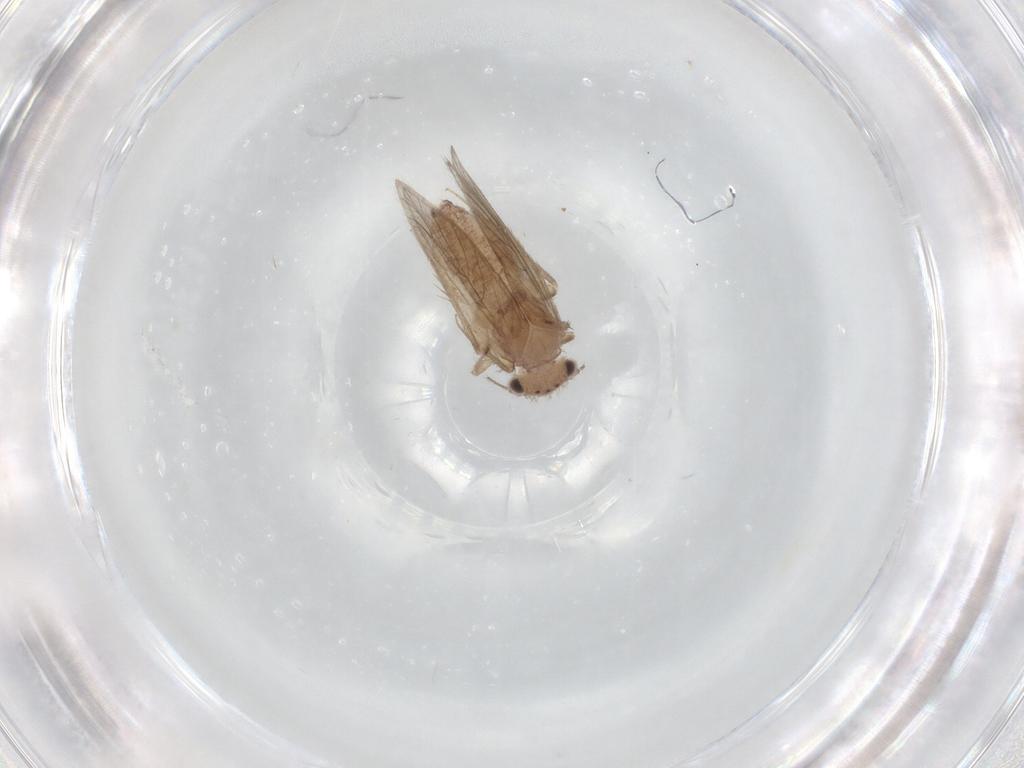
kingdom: Animalia
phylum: Arthropoda
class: Insecta
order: Psocodea
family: Lepidopsocidae
